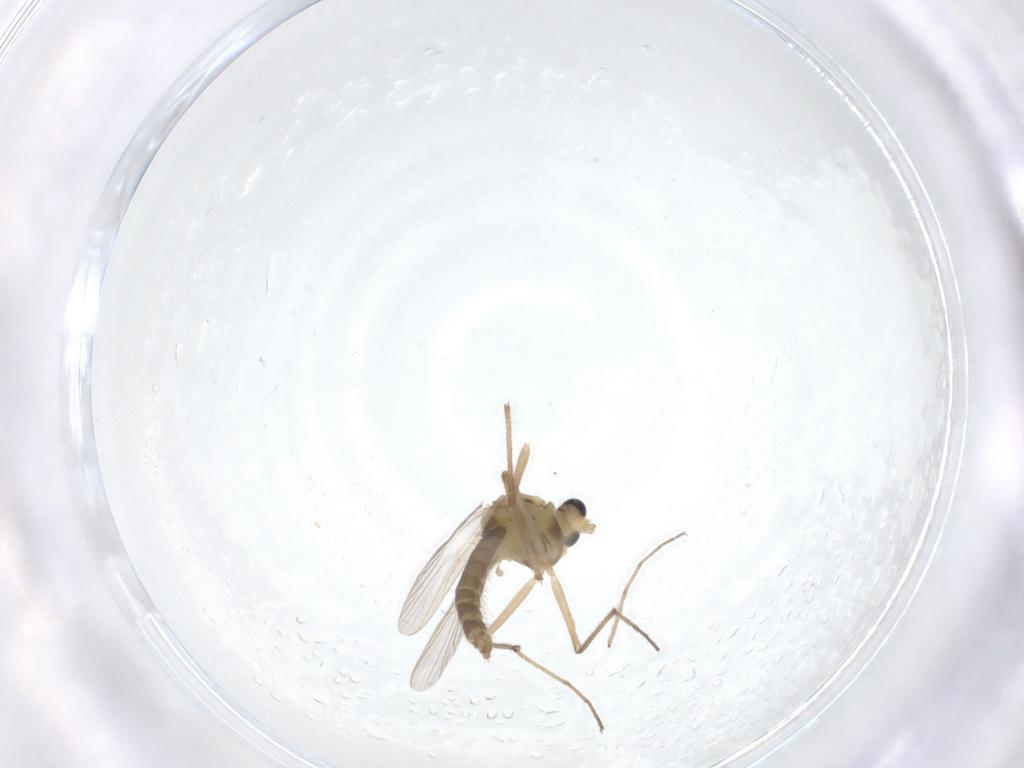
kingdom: Animalia
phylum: Arthropoda
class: Insecta
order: Diptera
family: Chironomidae
